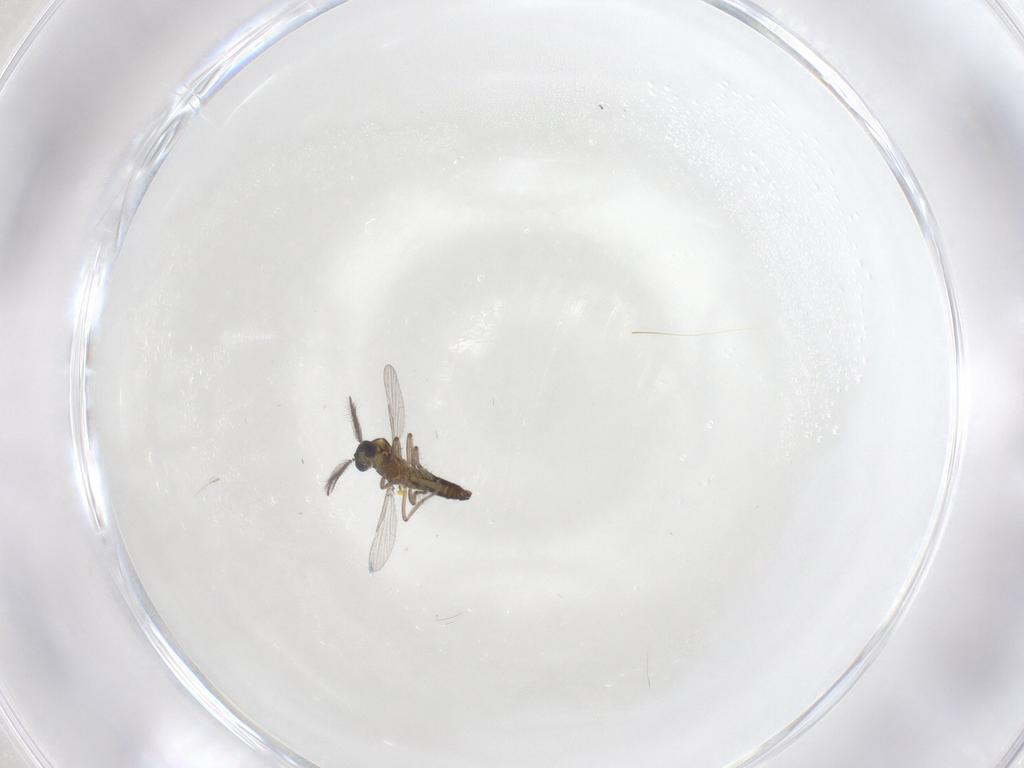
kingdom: Animalia
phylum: Arthropoda
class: Insecta
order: Diptera
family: Ceratopogonidae
